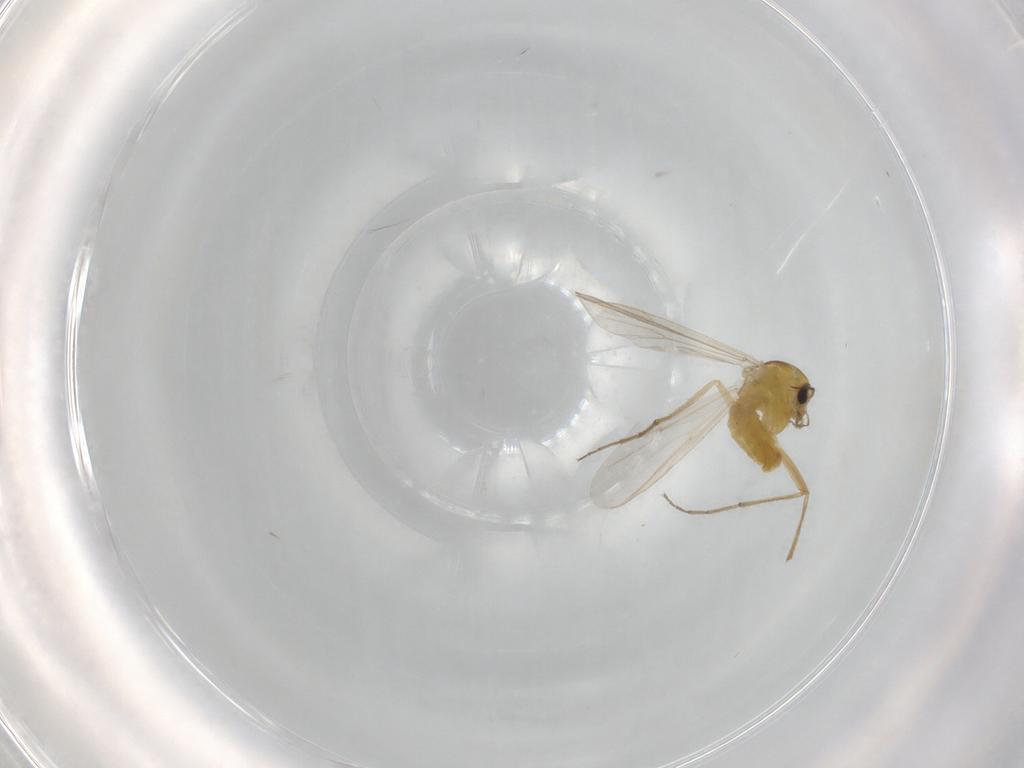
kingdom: Animalia
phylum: Arthropoda
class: Insecta
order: Diptera
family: Chironomidae
